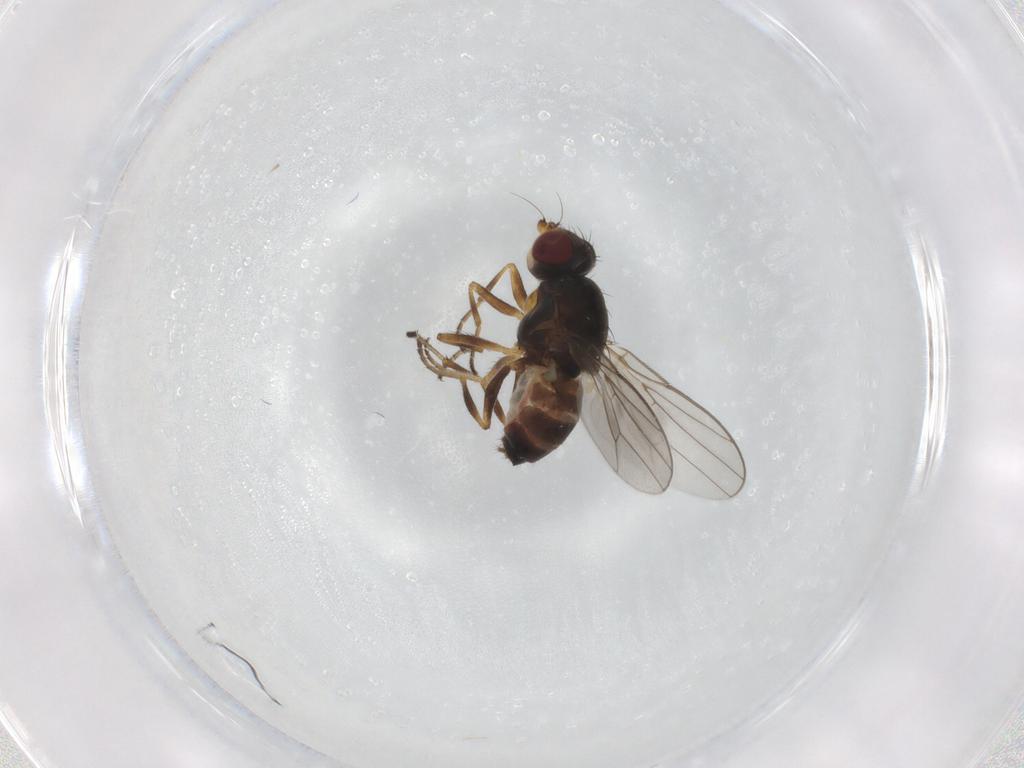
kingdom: Animalia
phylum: Arthropoda
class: Insecta
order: Diptera
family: Chloropidae
